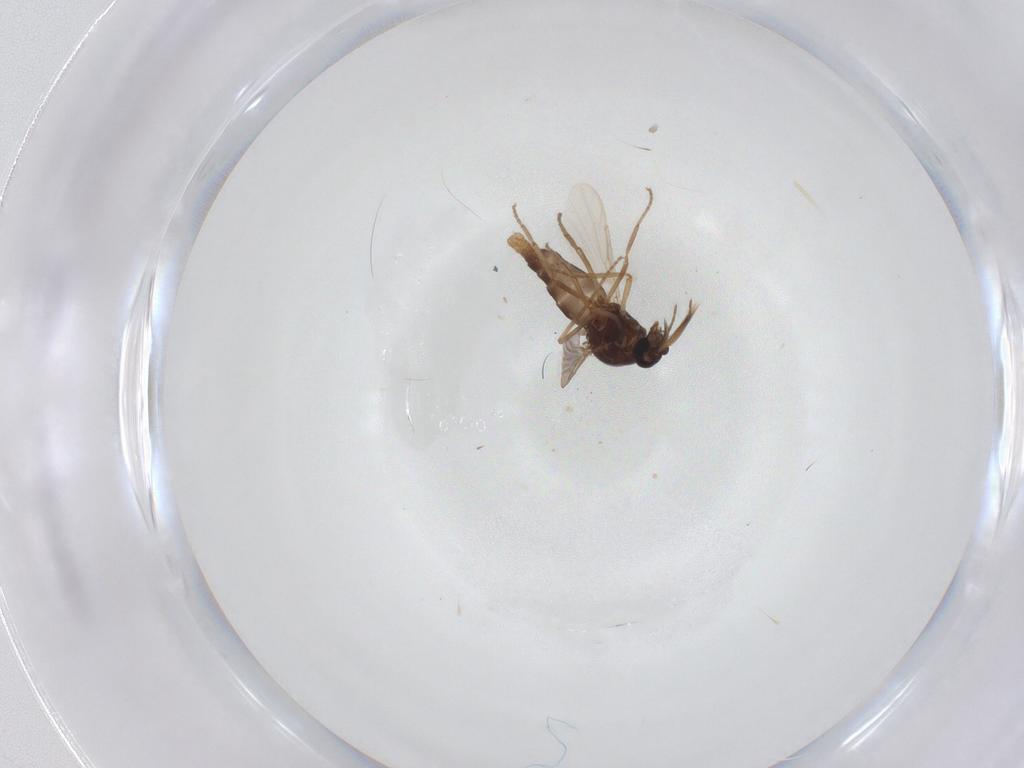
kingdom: Animalia
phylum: Arthropoda
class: Insecta
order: Diptera
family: Ceratopogonidae
